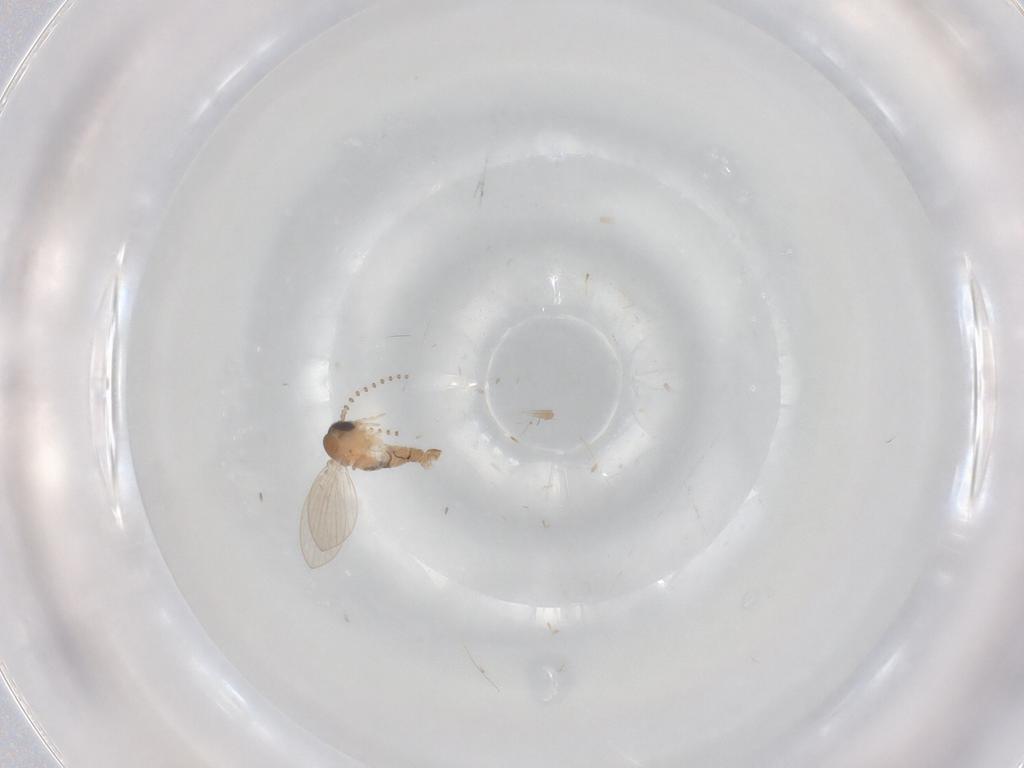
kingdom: Animalia
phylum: Arthropoda
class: Insecta
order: Diptera
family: Psychodidae
